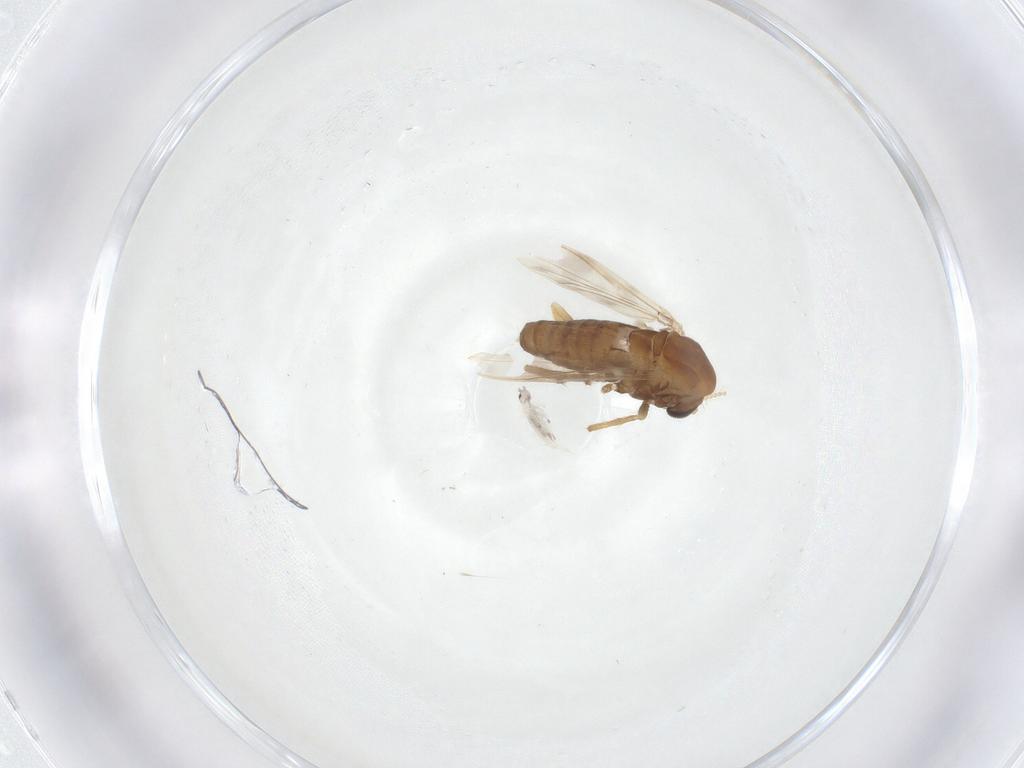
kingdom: Animalia
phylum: Arthropoda
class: Insecta
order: Diptera
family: Chironomidae
